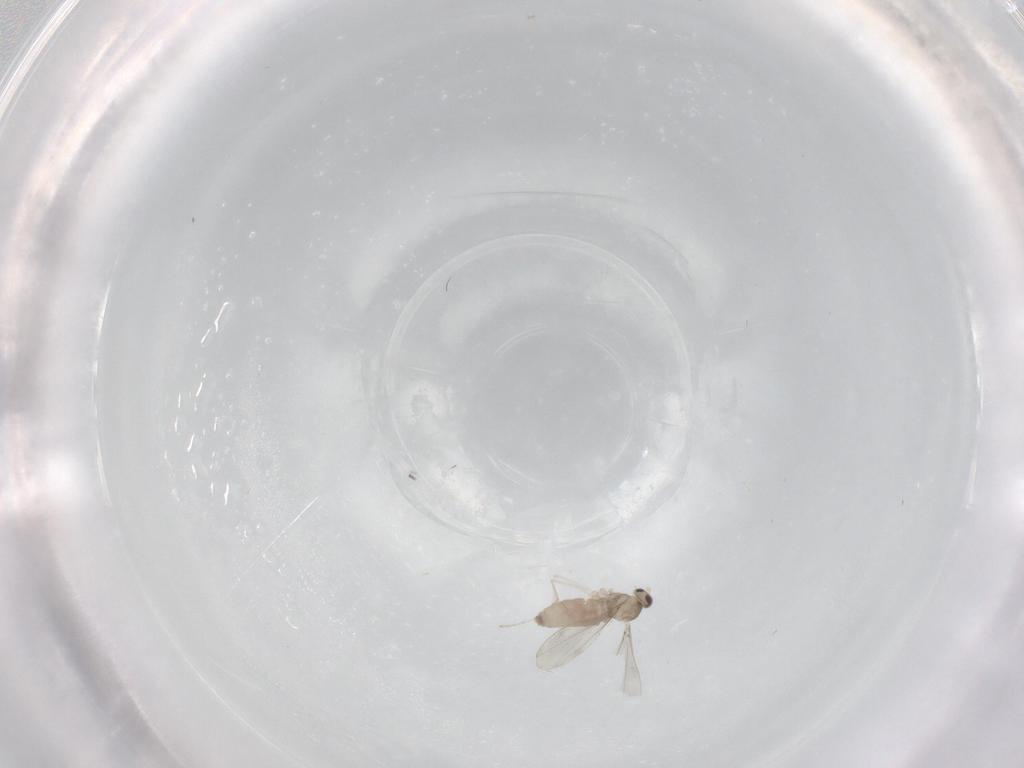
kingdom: Animalia
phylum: Arthropoda
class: Insecta
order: Diptera
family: Cecidomyiidae
